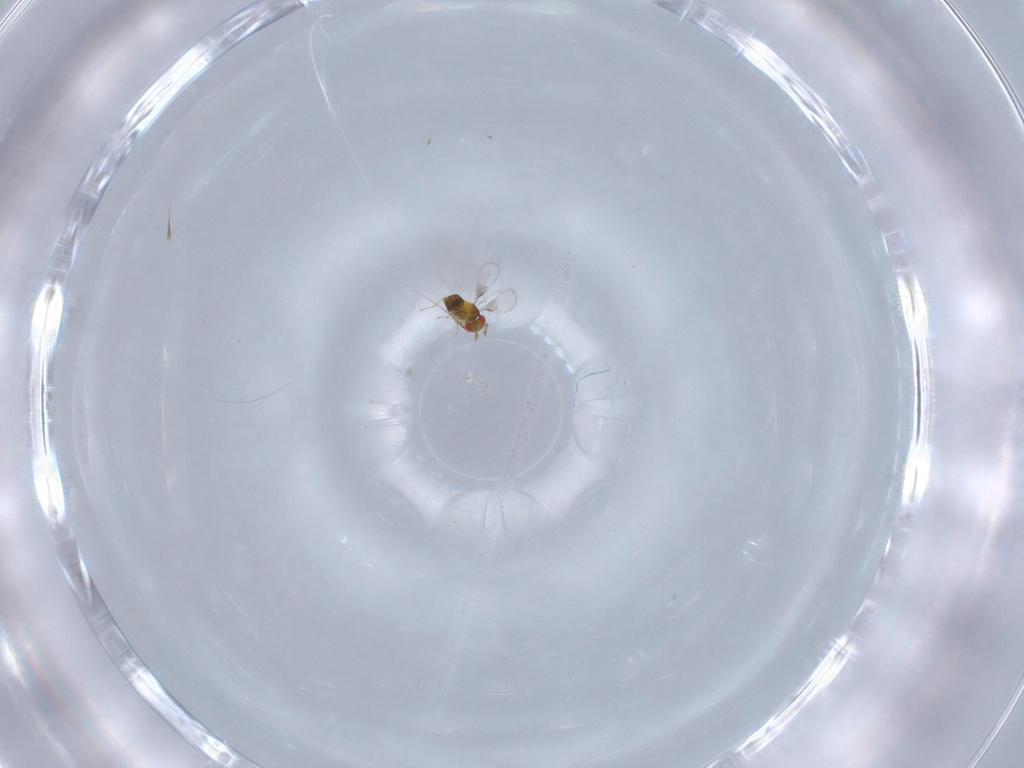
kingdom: Animalia
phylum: Arthropoda
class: Insecta
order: Hymenoptera
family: Trichogrammatidae
